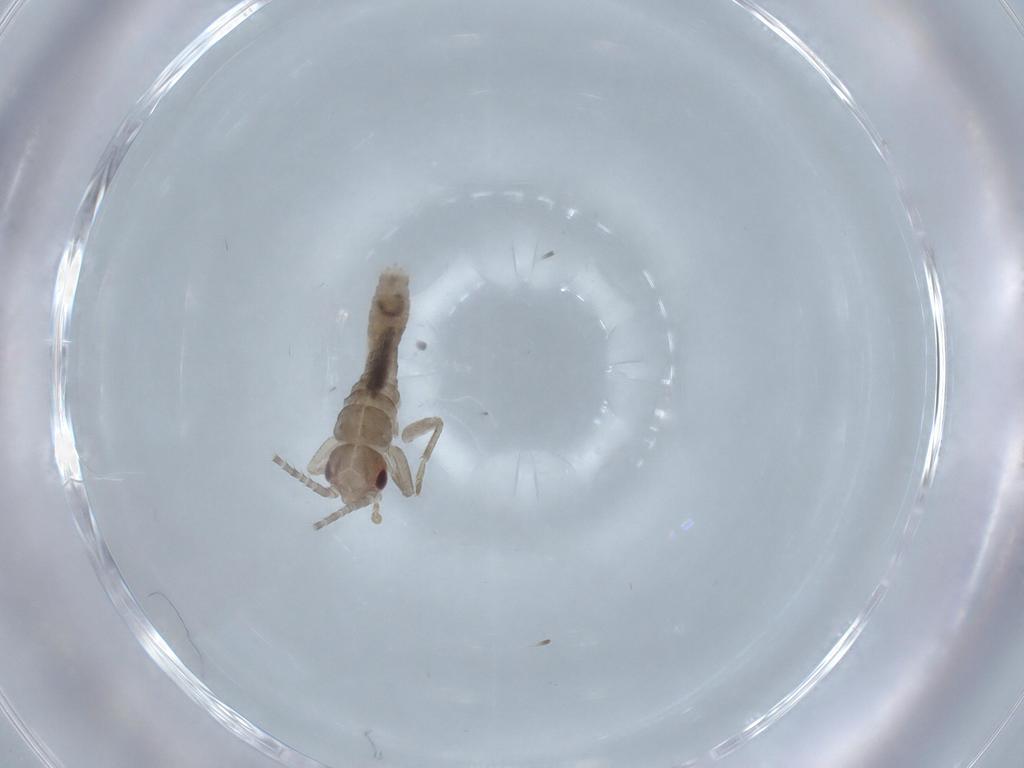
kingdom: Animalia
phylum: Arthropoda
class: Insecta
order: Orthoptera
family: Mogoplistidae
